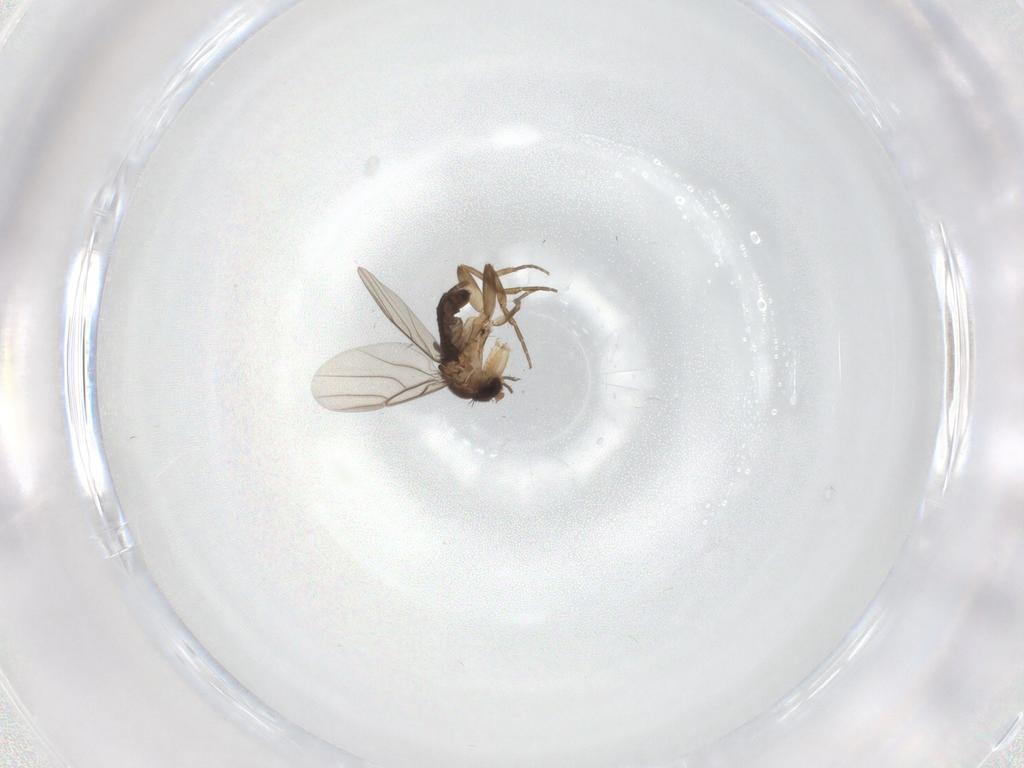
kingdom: Animalia
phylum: Arthropoda
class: Insecta
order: Diptera
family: Phoridae
